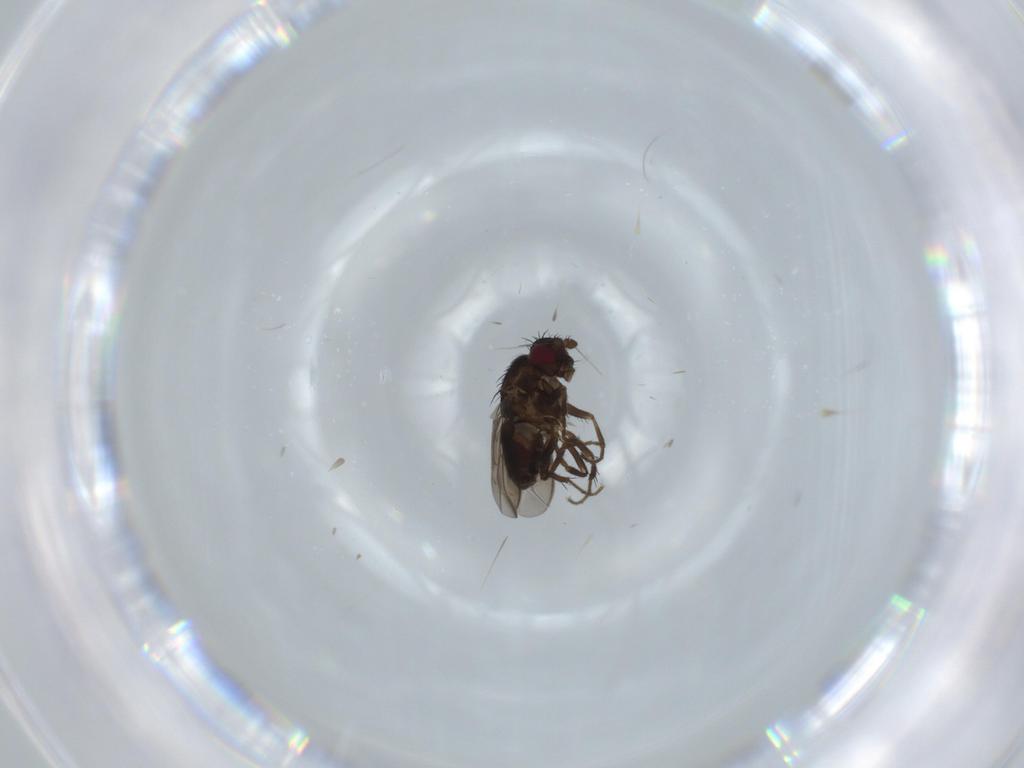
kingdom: Animalia
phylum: Arthropoda
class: Insecta
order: Diptera
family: Sphaeroceridae
